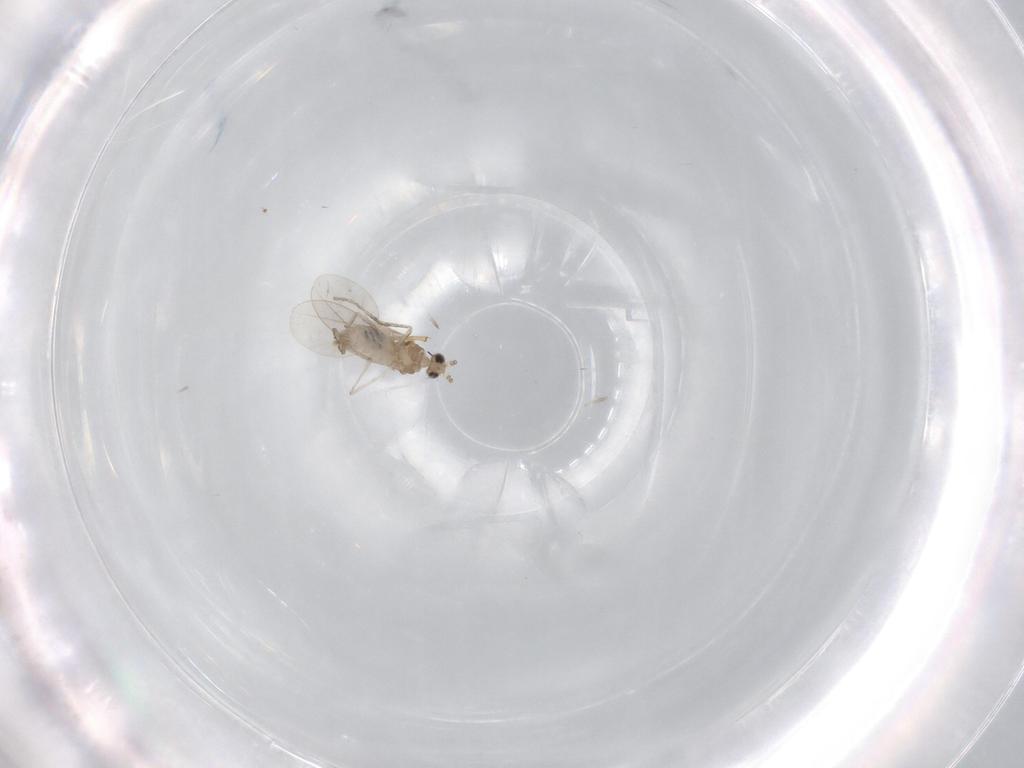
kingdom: Animalia
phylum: Arthropoda
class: Insecta
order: Diptera
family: Chironomidae
